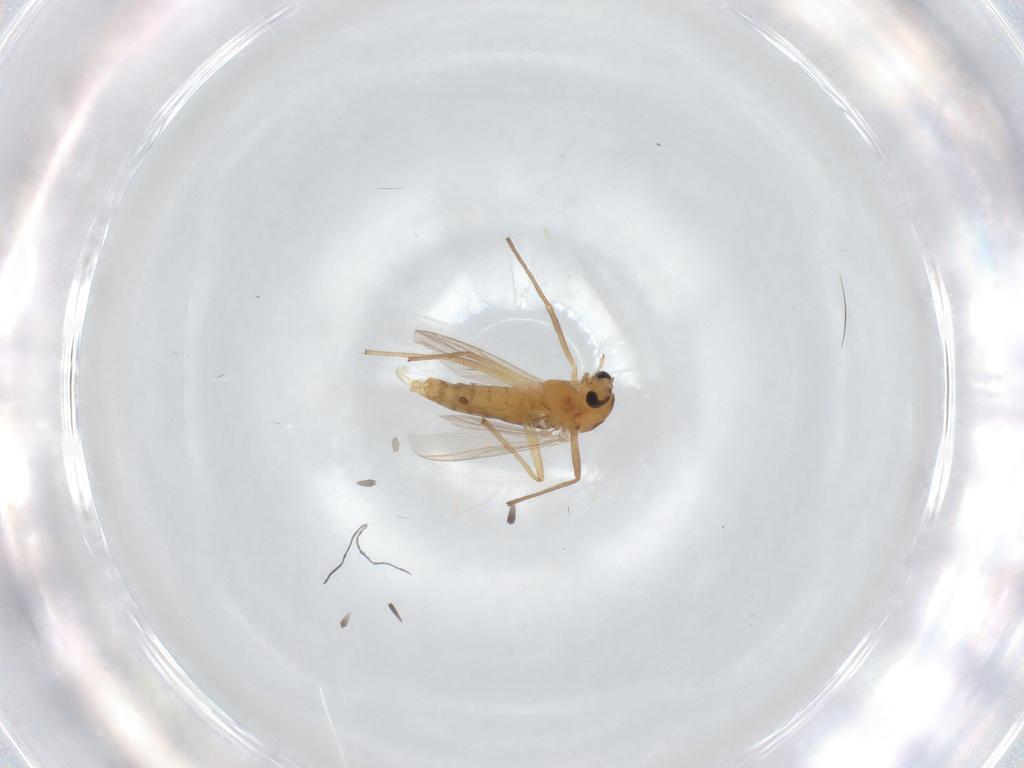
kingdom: Animalia
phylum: Arthropoda
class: Insecta
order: Diptera
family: Chironomidae
